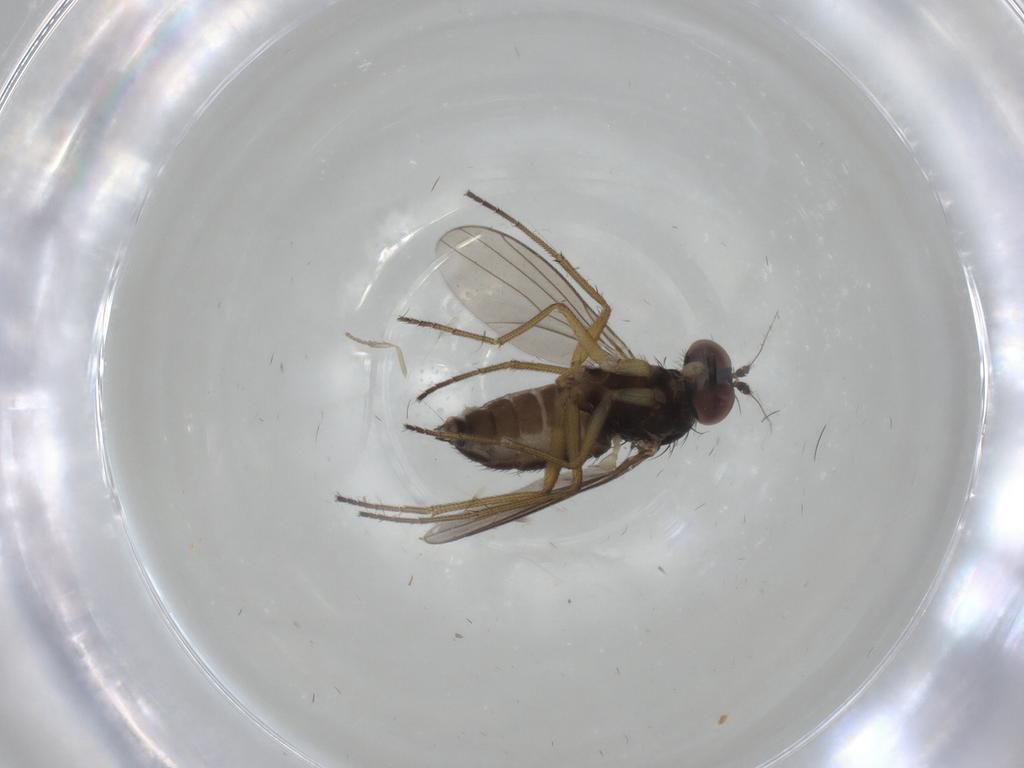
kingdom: Animalia
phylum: Arthropoda
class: Insecta
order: Diptera
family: Dolichopodidae
